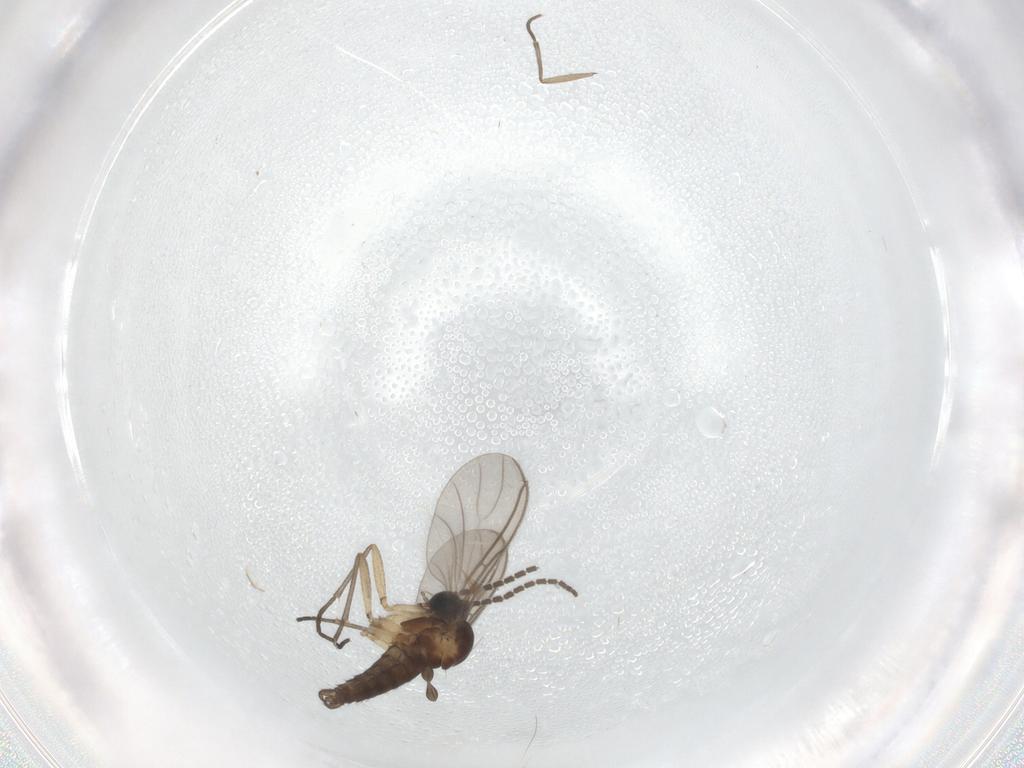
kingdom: Animalia
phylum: Arthropoda
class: Insecta
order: Diptera
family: Sciaridae
